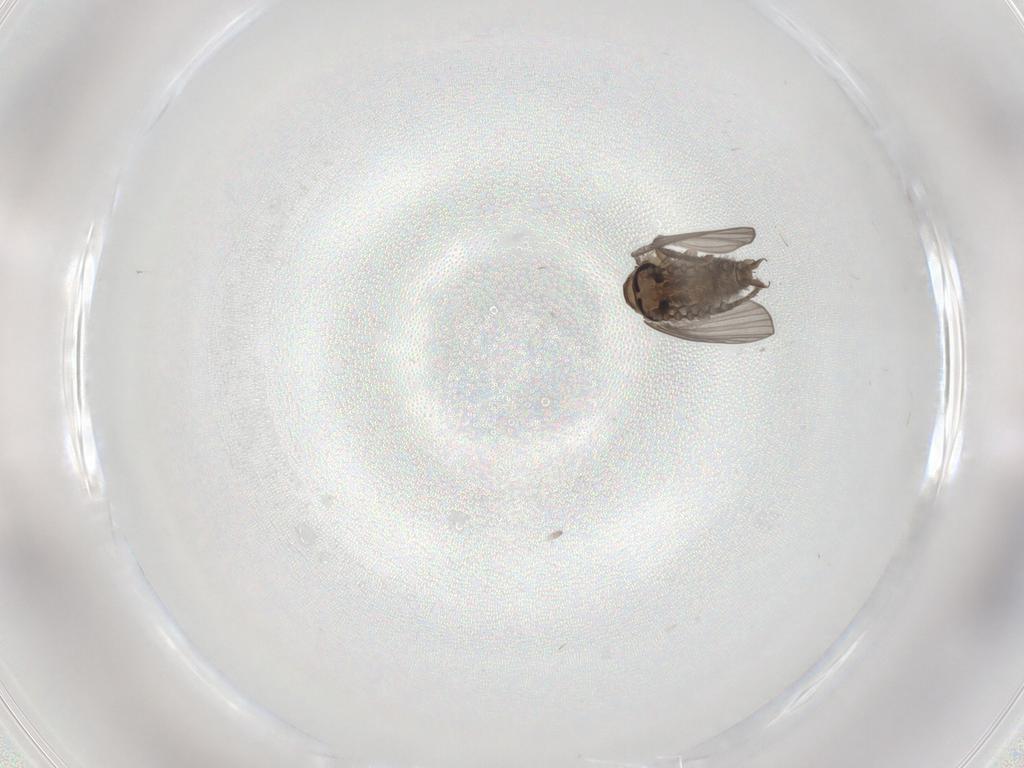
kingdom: Animalia
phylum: Arthropoda
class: Insecta
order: Diptera
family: Psychodidae
